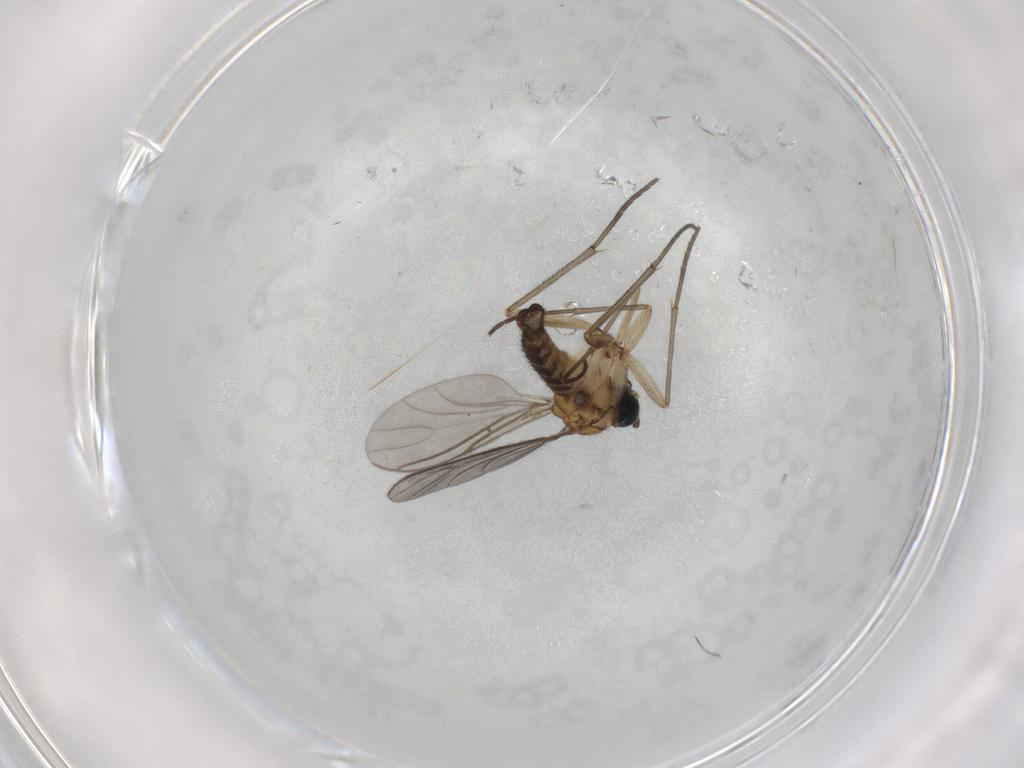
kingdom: Animalia
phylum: Arthropoda
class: Insecta
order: Diptera
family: Sciaridae
